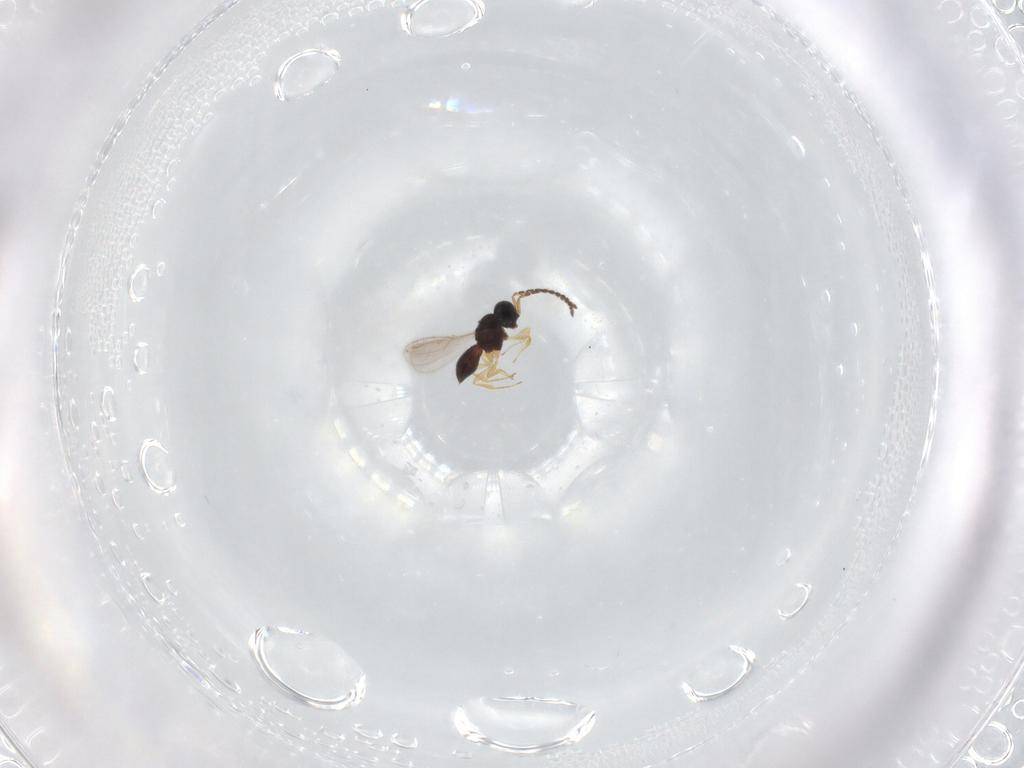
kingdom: Animalia
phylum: Arthropoda
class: Insecta
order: Hymenoptera
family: Scelionidae
